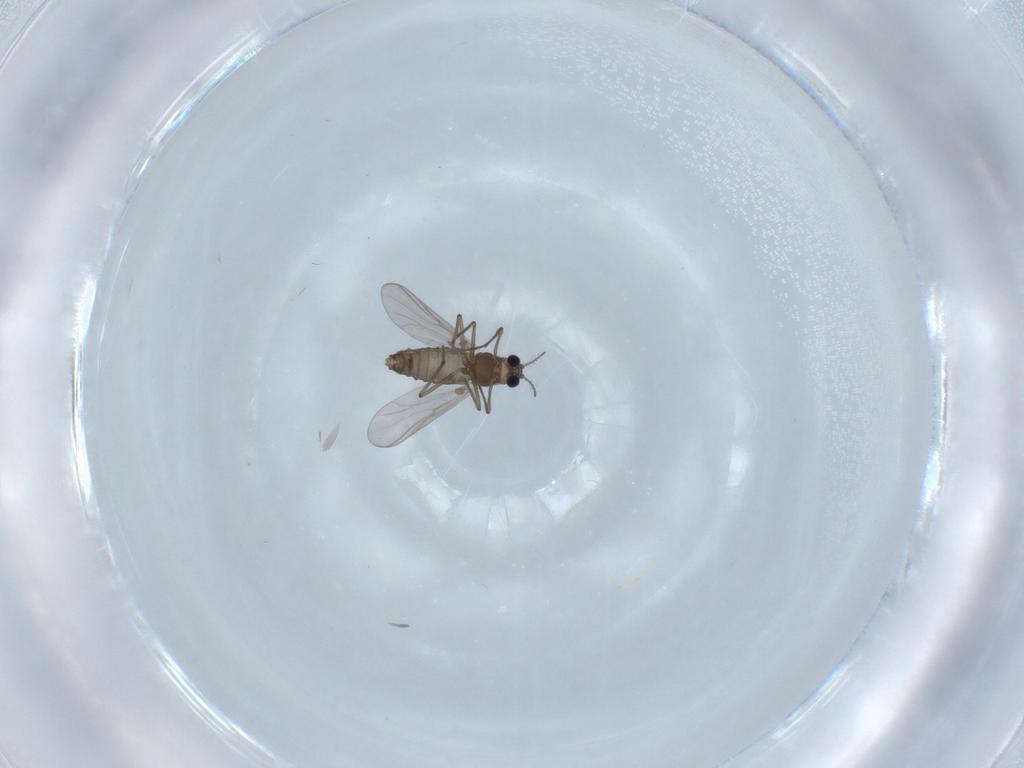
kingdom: Animalia
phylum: Arthropoda
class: Insecta
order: Diptera
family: Chironomidae
